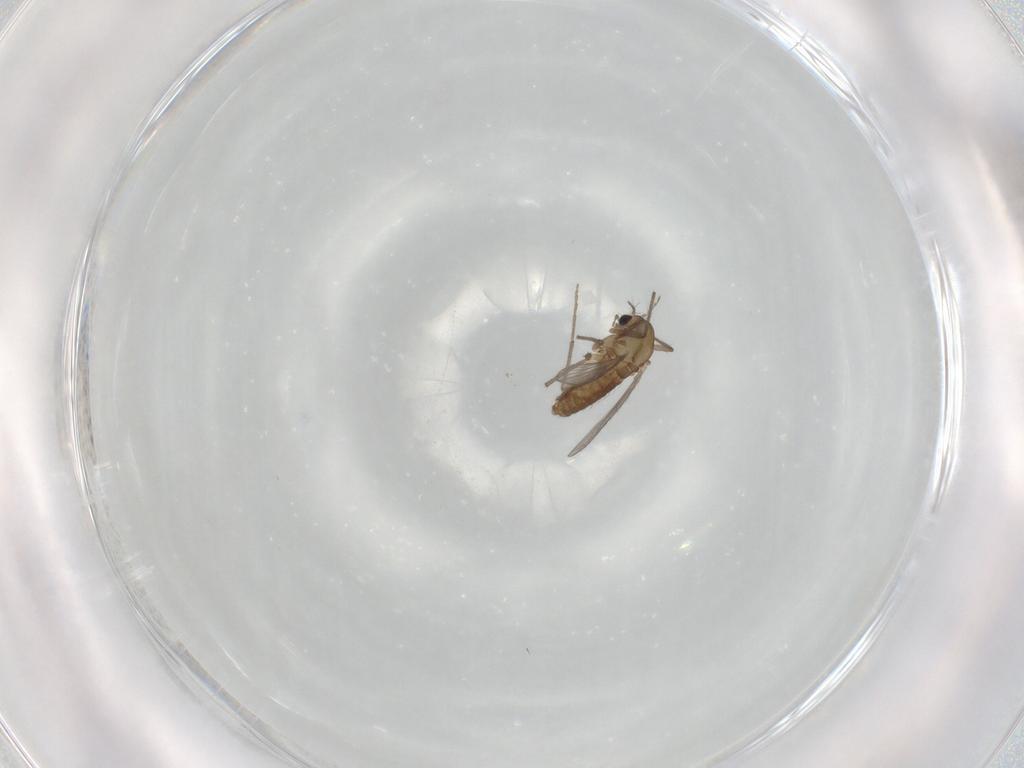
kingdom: Animalia
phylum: Arthropoda
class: Insecta
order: Diptera
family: Chironomidae
